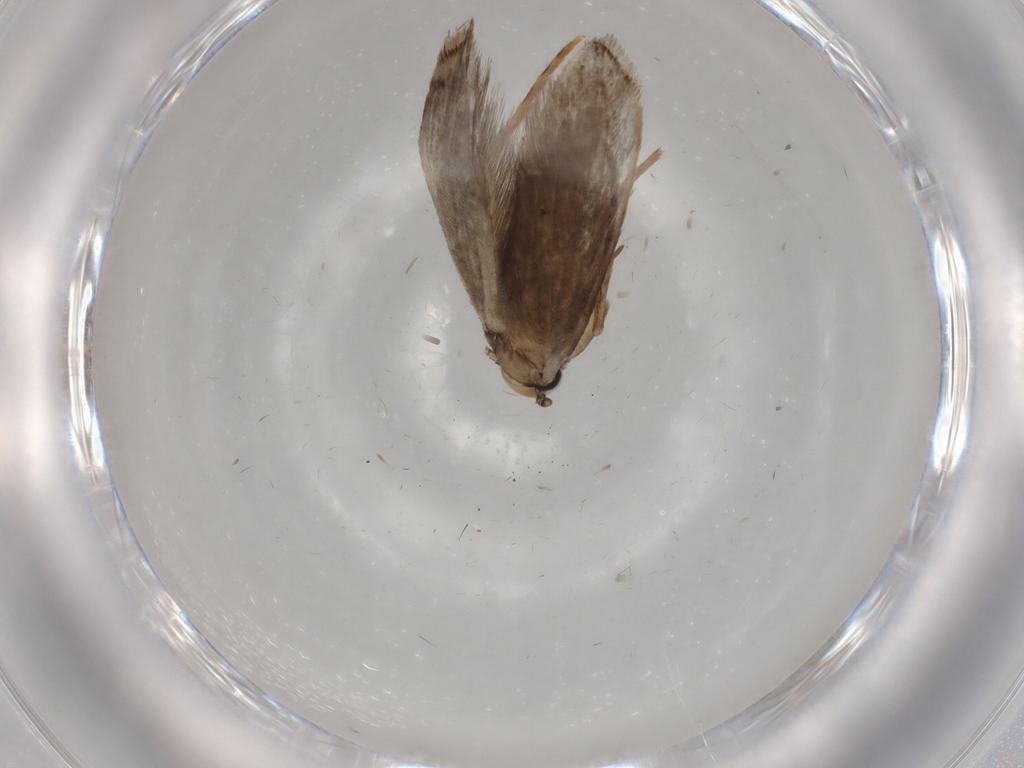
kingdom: Animalia
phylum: Arthropoda
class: Insecta
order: Lepidoptera
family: Tineidae
